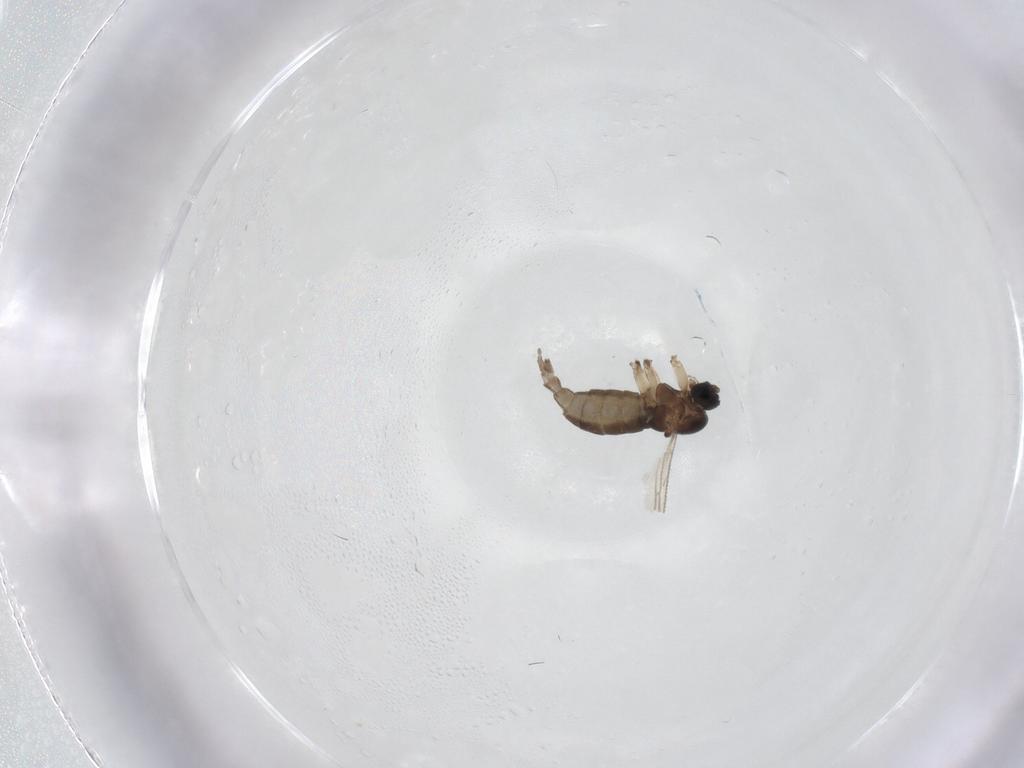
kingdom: Animalia
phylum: Arthropoda
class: Insecta
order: Diptera
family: Sciaridae
